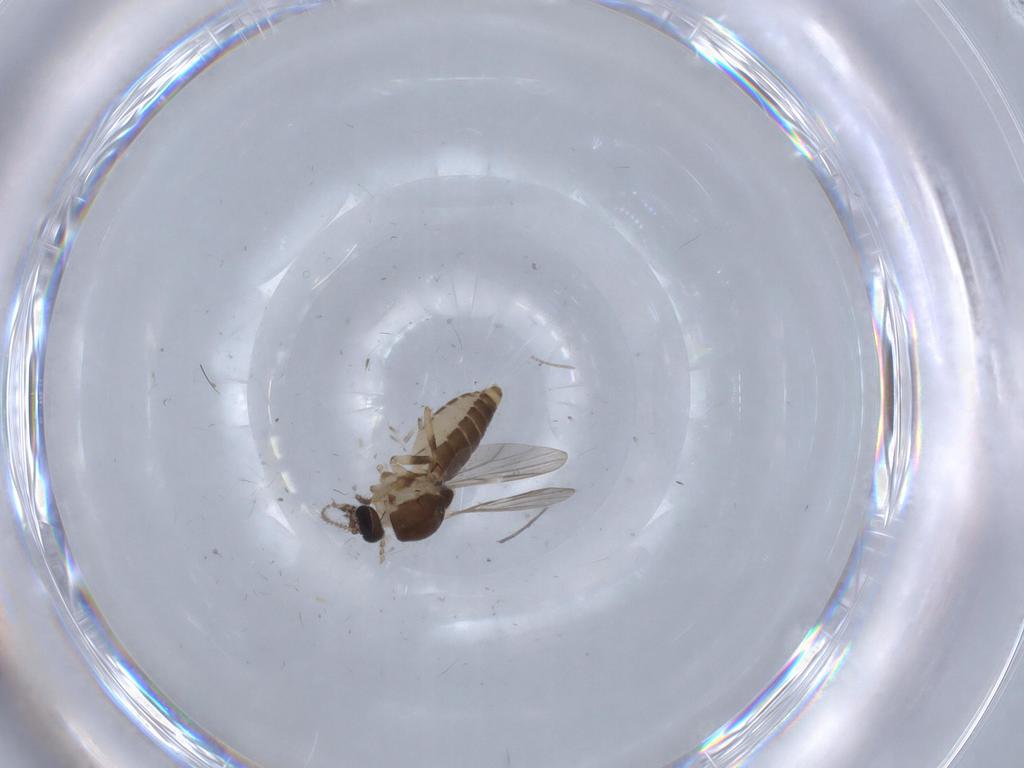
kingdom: Animalia
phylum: Arthropoda
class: Insecta
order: Diptera
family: Ceratopogonidae
